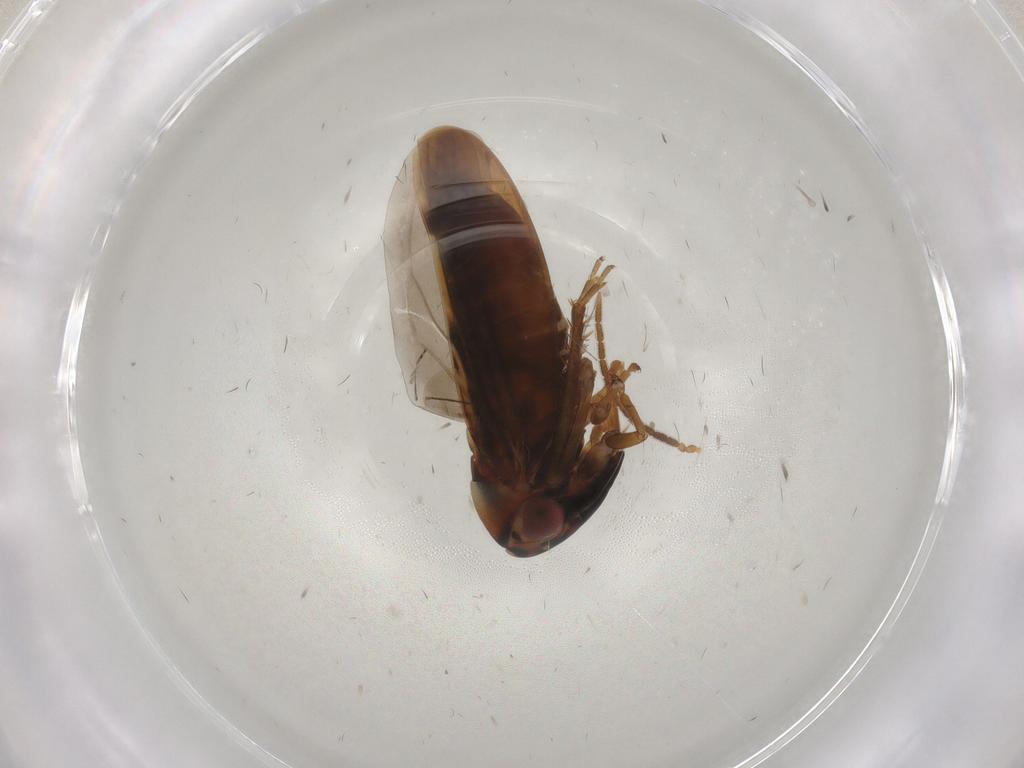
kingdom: Animalia
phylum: Arthropoda
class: Insecta
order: Hemiptera
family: Cicadellidae
